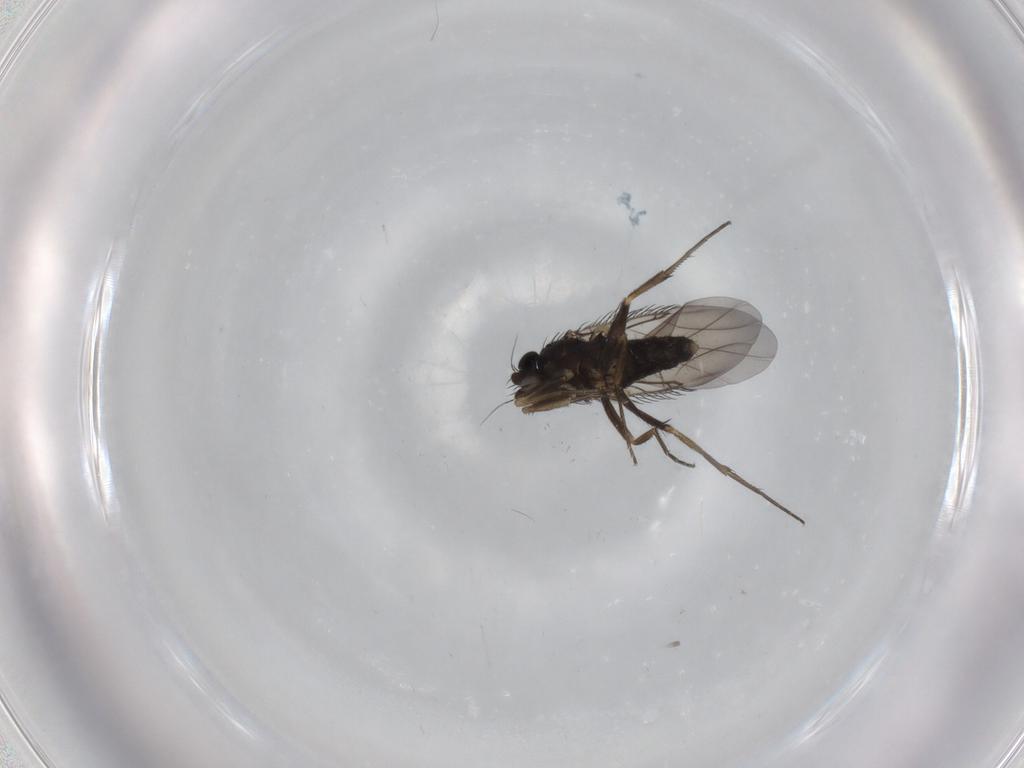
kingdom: Animalia
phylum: Arthropoda
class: Insecta
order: Diptera
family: Phoridae
